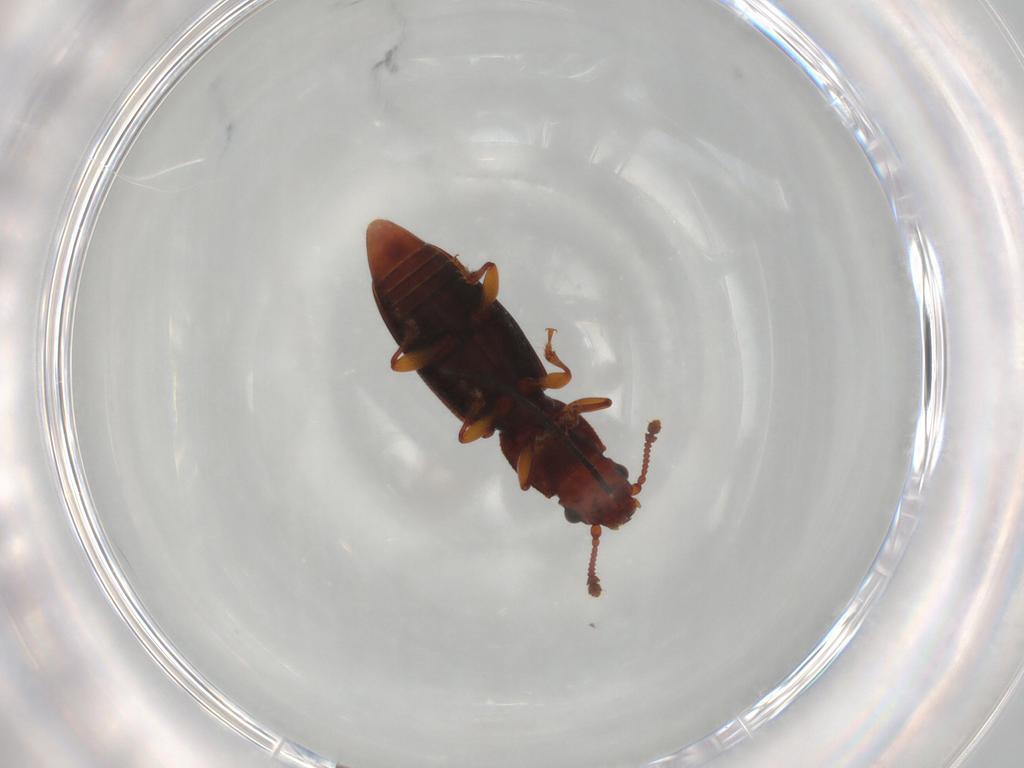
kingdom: Animalia
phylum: Arthropoda
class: Insecta
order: Coleoptera
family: Monotomidae
